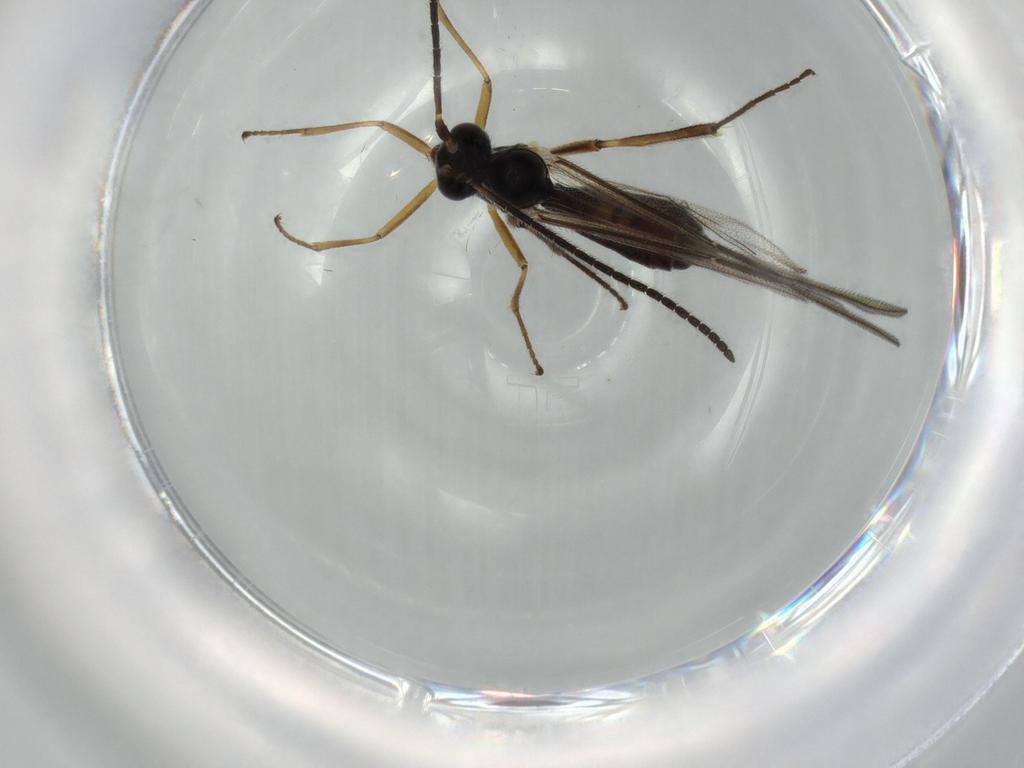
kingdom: Animalia
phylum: Arthropoda
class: Insecta
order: Hymenoptera
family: Ichneumonidae
